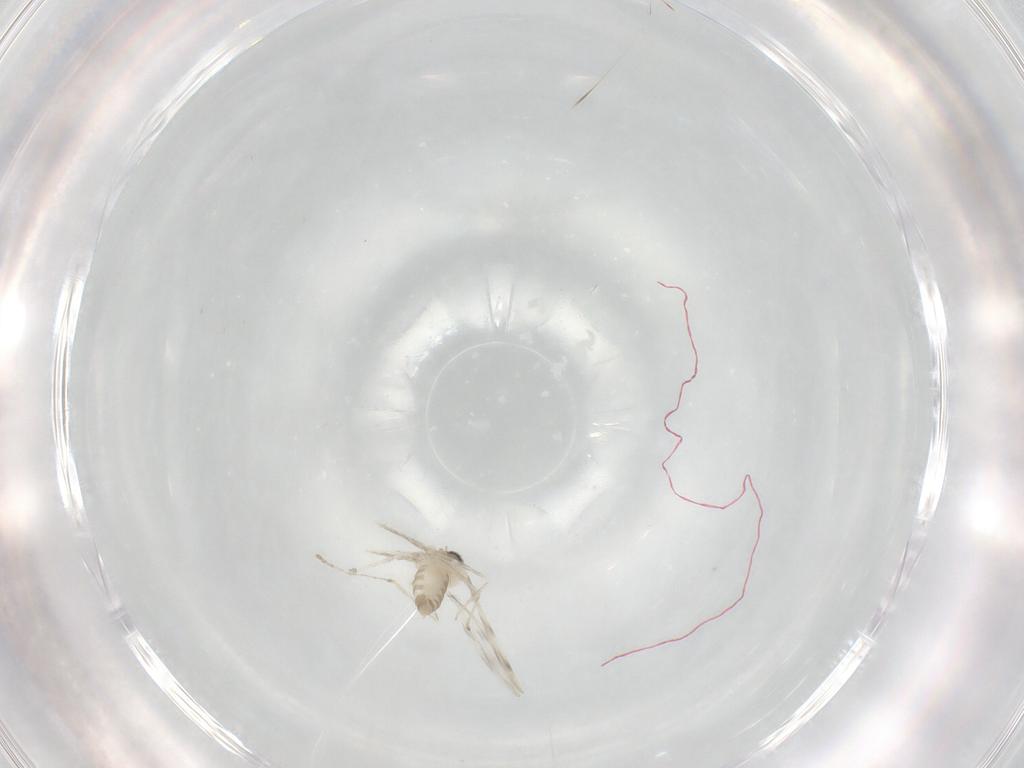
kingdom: Animalia
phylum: Arthropoda
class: Insecta
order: Diptera
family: Cecidomyiidae
